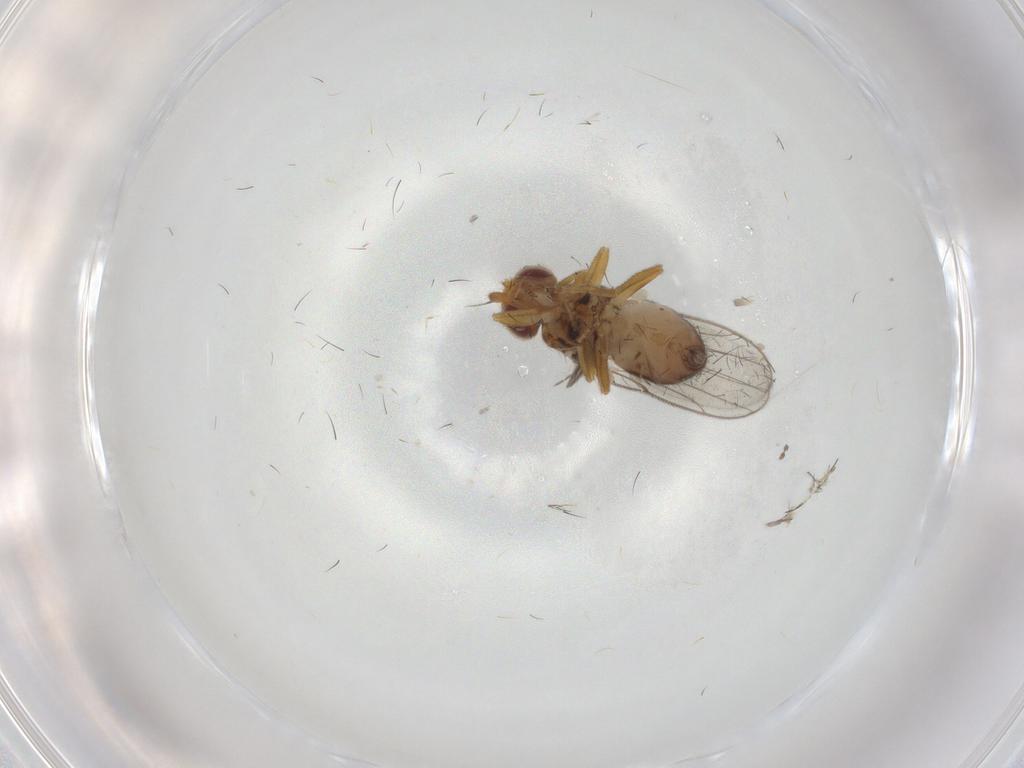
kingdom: Animalia
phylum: Arthropoda
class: Insecta
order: Diptera
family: Chloropidae
